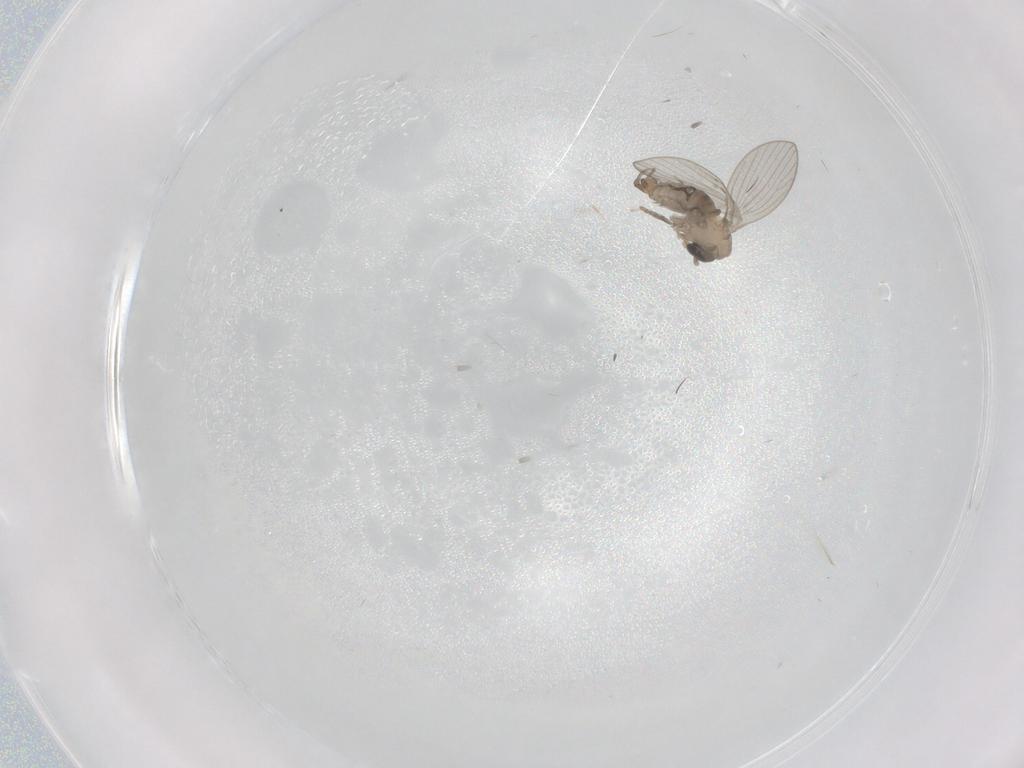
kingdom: Animalia
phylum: Arthropoda
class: Insecta
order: Diptera
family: Psychodidae
